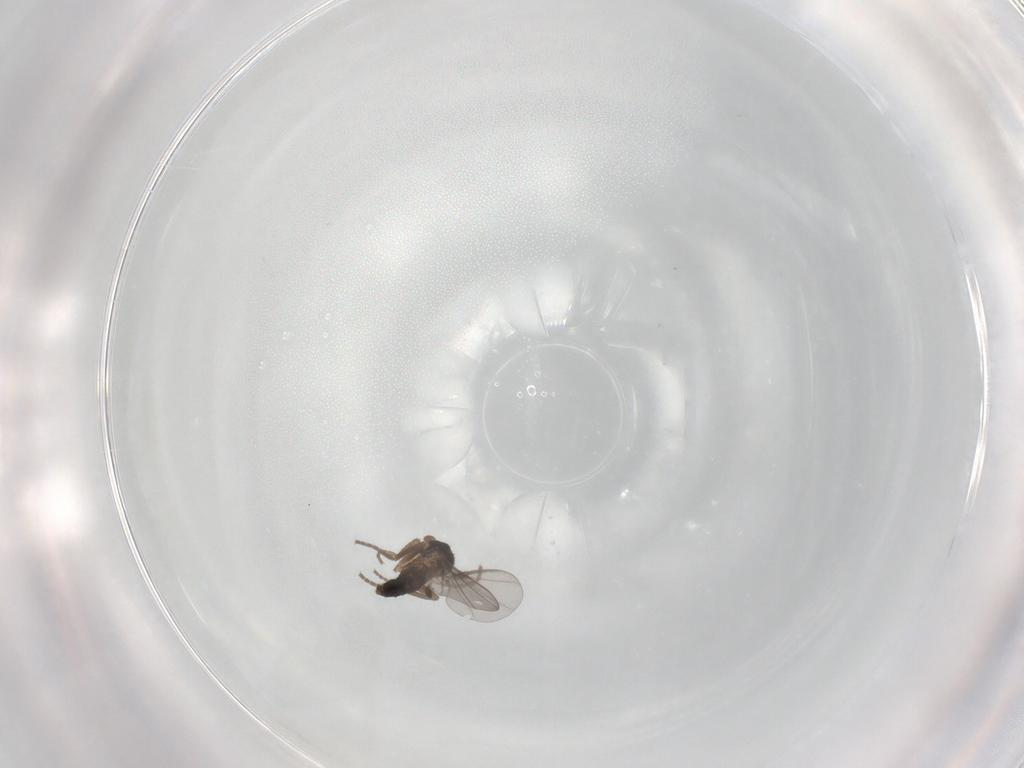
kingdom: Animalia
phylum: Arthropoda
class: Insecta
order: Diptera
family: Phoridae
